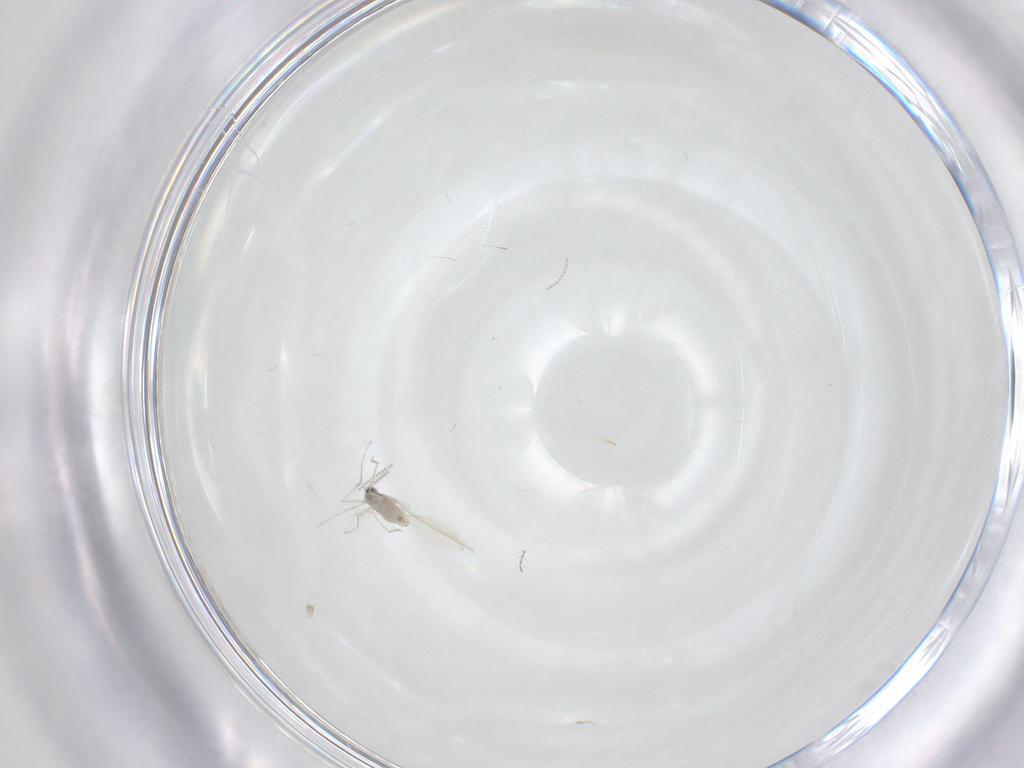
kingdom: Animalia
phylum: Arthropoda
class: Insecta
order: Diptera
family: Cecidomyiidae
